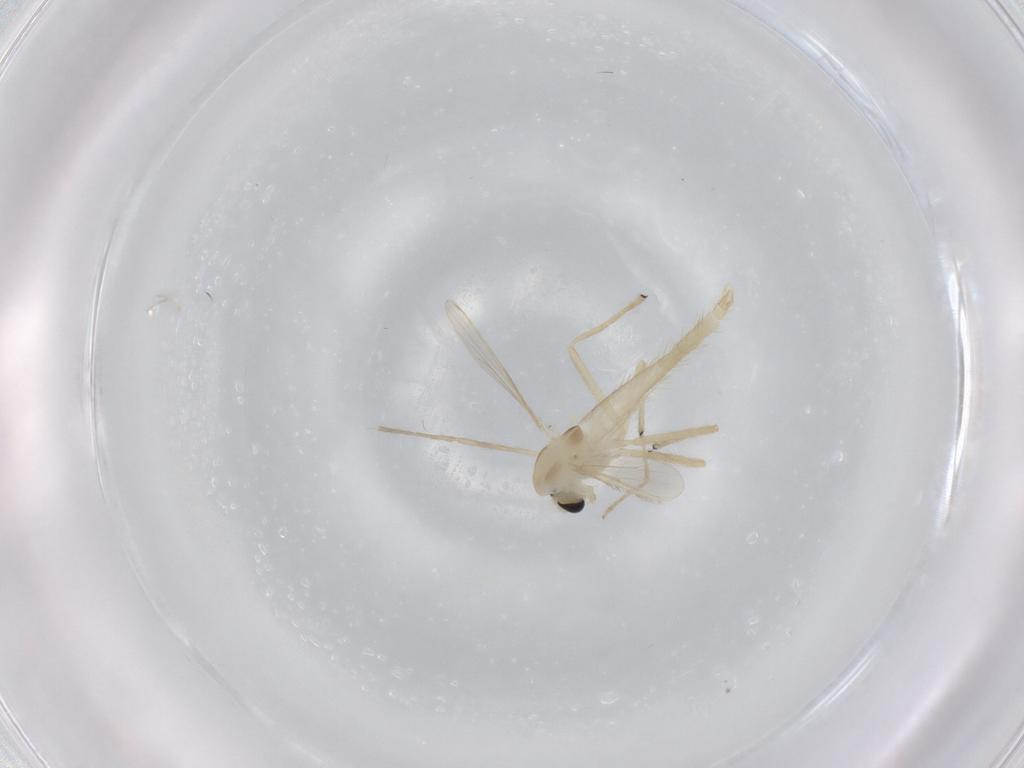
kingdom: Animalia
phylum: Arthropoda
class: Insecta
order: Diptera
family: Chironomidae
